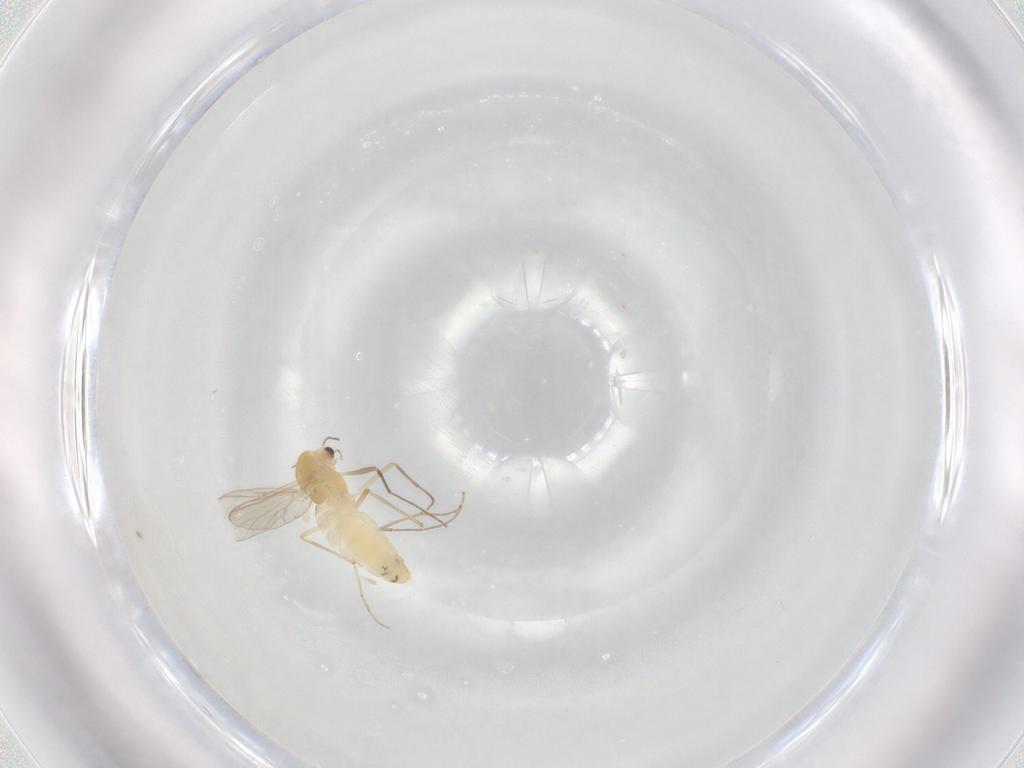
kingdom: Animalia
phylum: Arthropoda
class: Insecta
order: Diptera
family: Chironomidae
